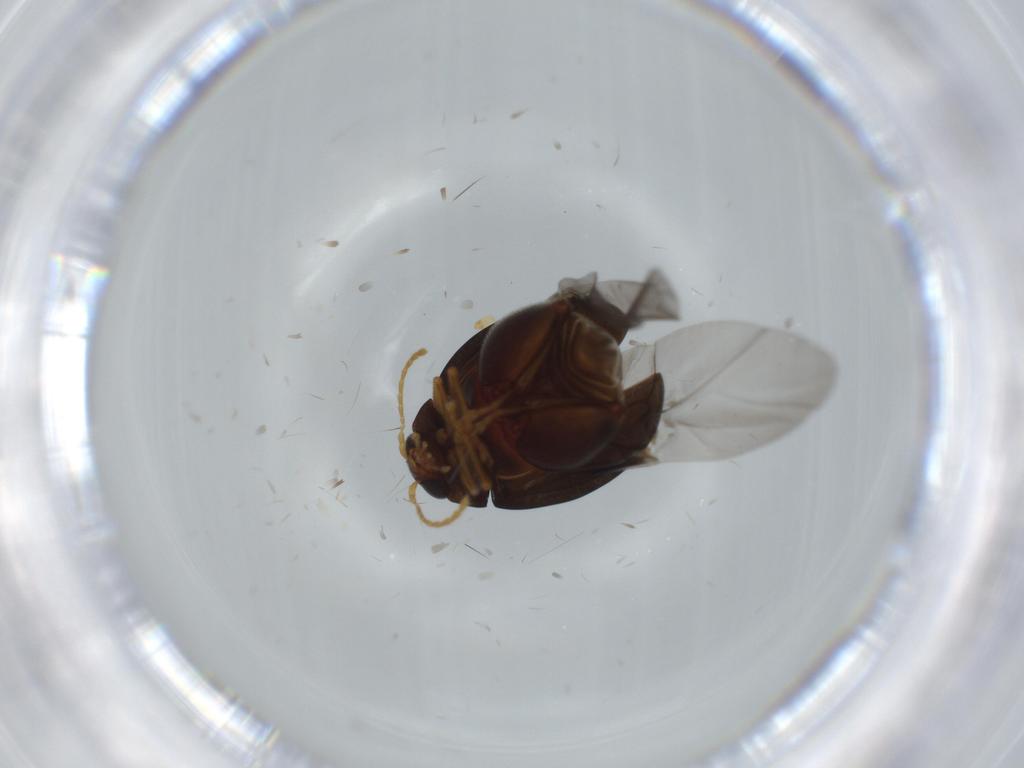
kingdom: Animalia
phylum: Arthropoda
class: Insecta
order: Coleoptera
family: Chrysomelidae
